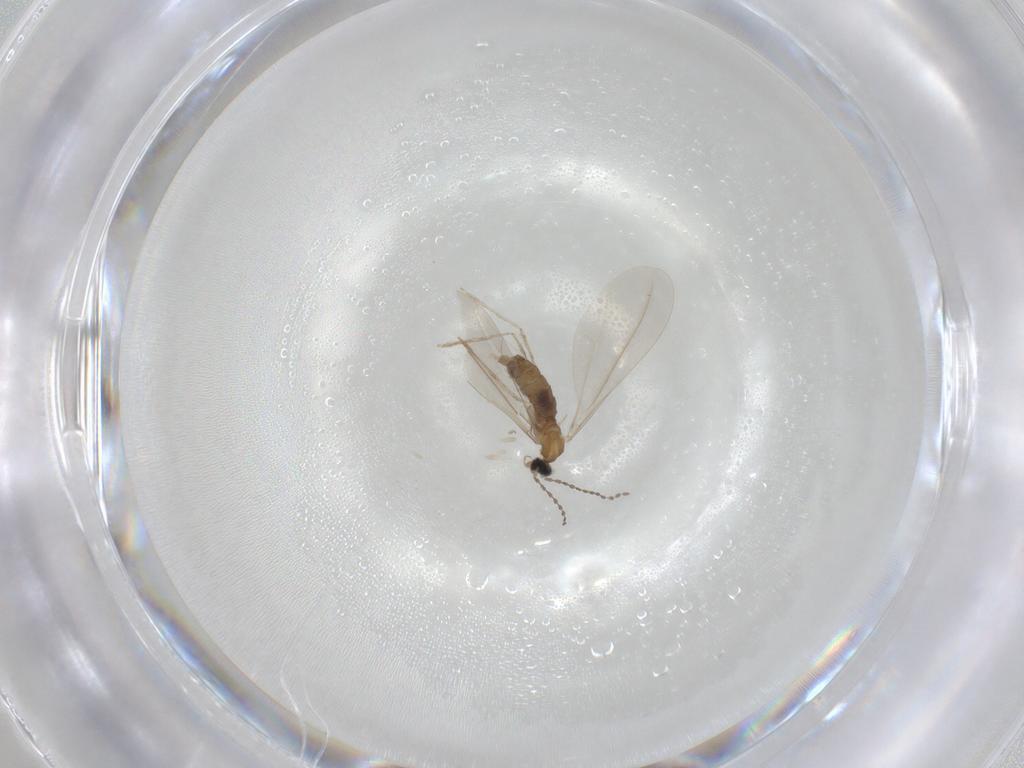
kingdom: Animalia
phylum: Arthropoda
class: Insecta
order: Diptera
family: Cecidomyiidae
